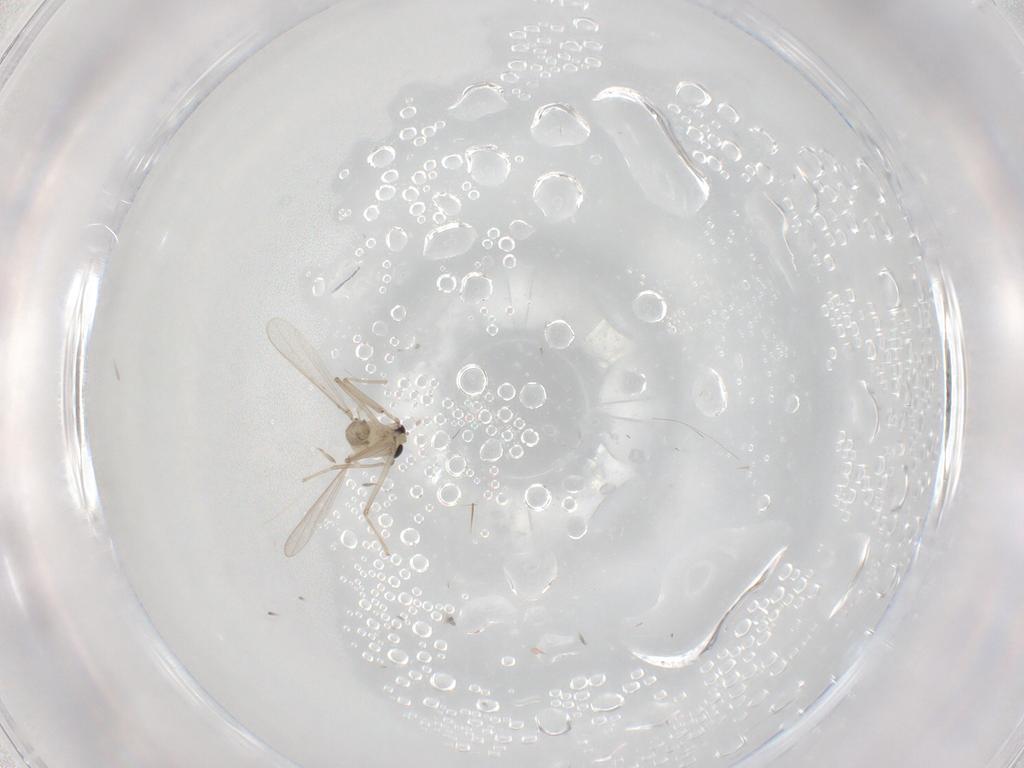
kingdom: Animalia
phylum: Arthropoda
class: Insecta
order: Diptera
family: Chironomidae
